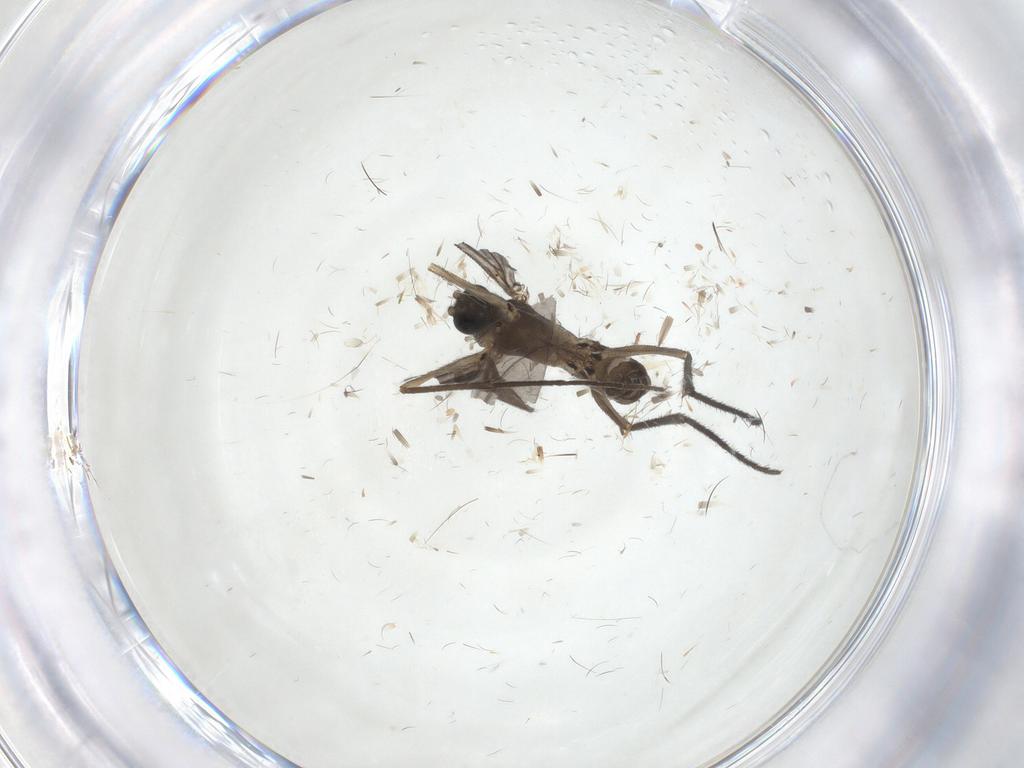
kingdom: Animalia
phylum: Arthropoda
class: Insecta
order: Diptera
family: Sciaridae
